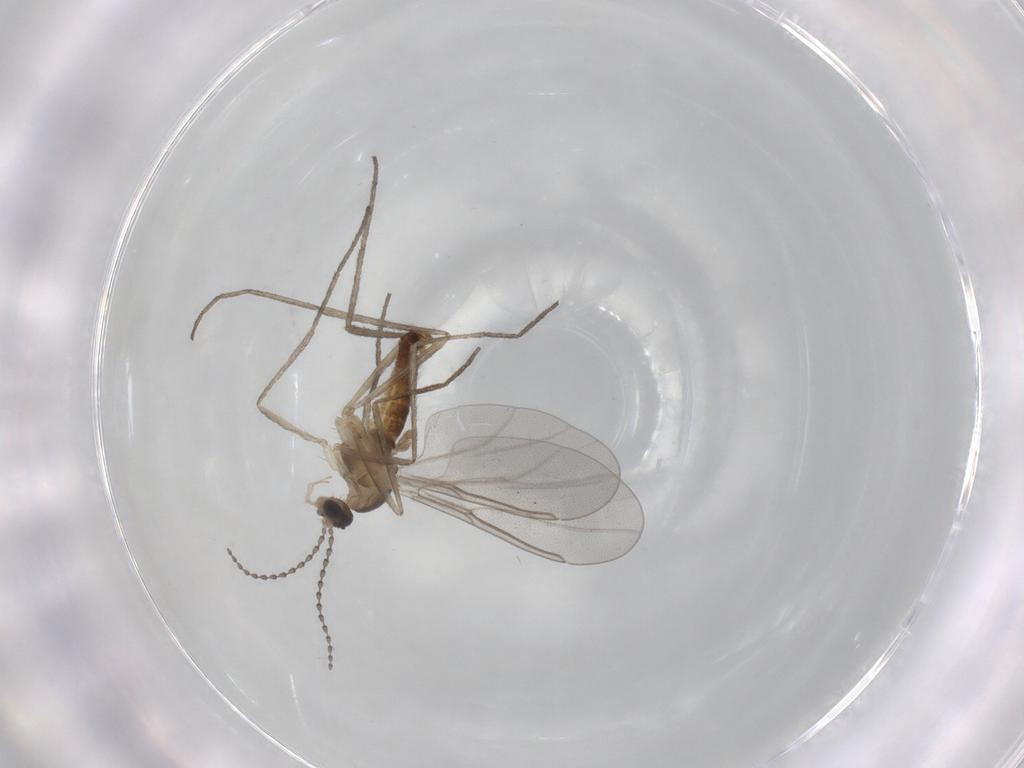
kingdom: Animalia
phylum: Arthropoda
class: Insecta
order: Diptera
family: Cecidomyiidae
